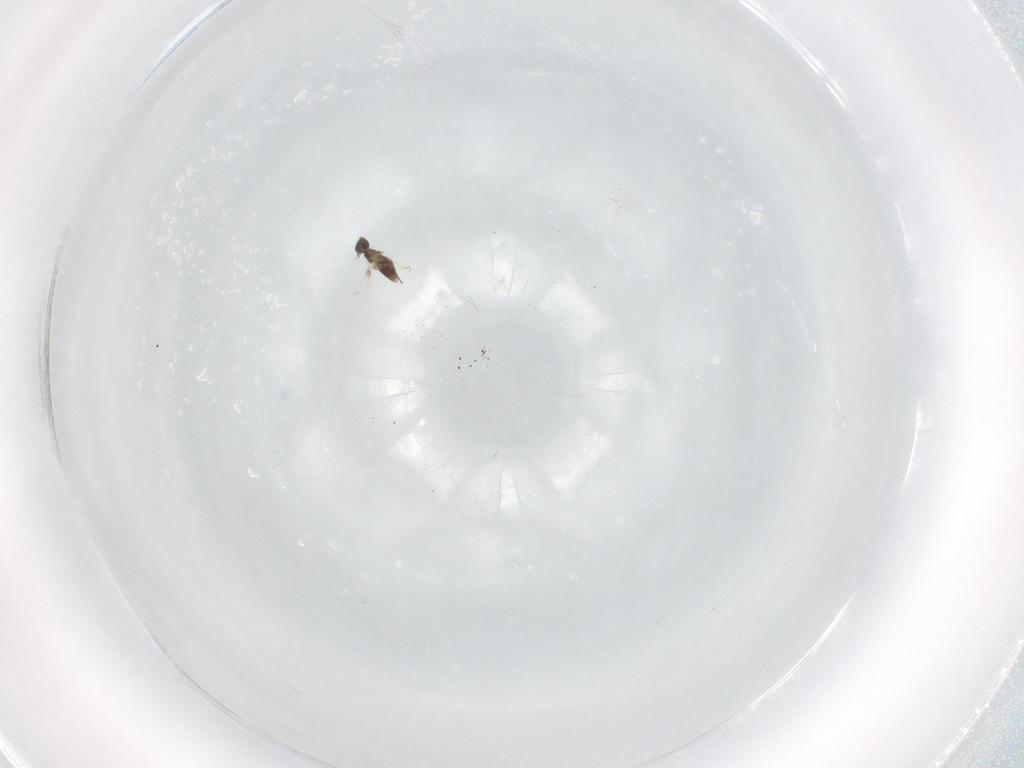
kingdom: Animalia
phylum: Arthropoda
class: Insecta
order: Hymenoptera
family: Mymaridae
